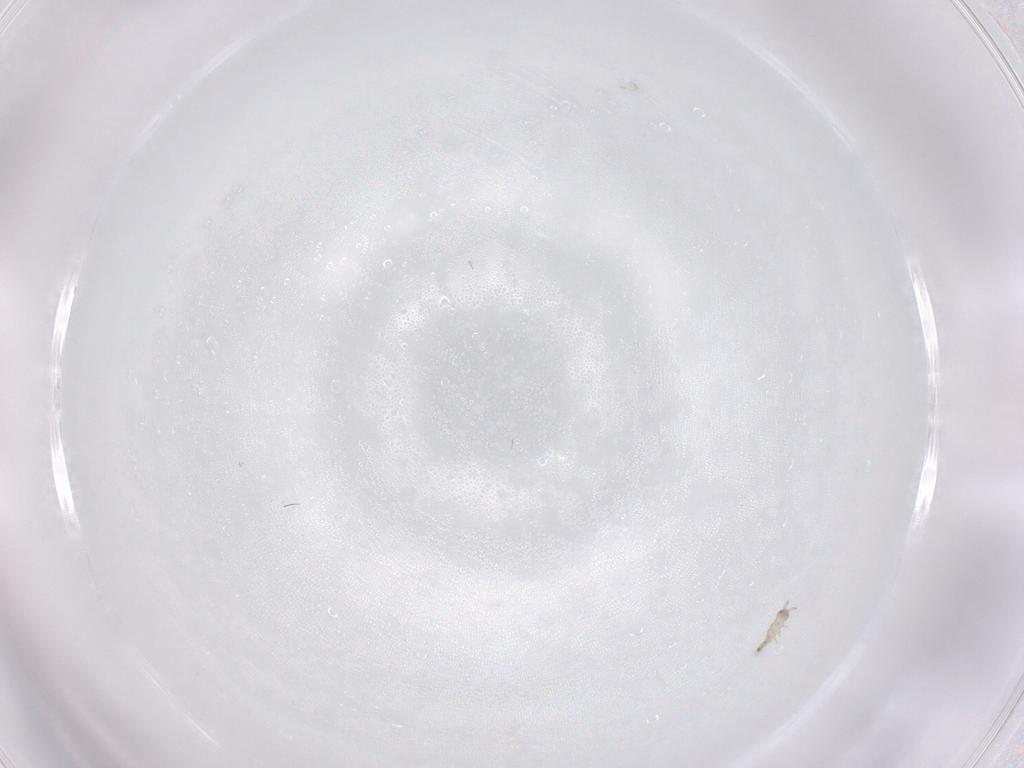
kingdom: Animalia
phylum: Arthropoda
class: Collembola
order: Poduromorpha
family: Hypogastruridae
